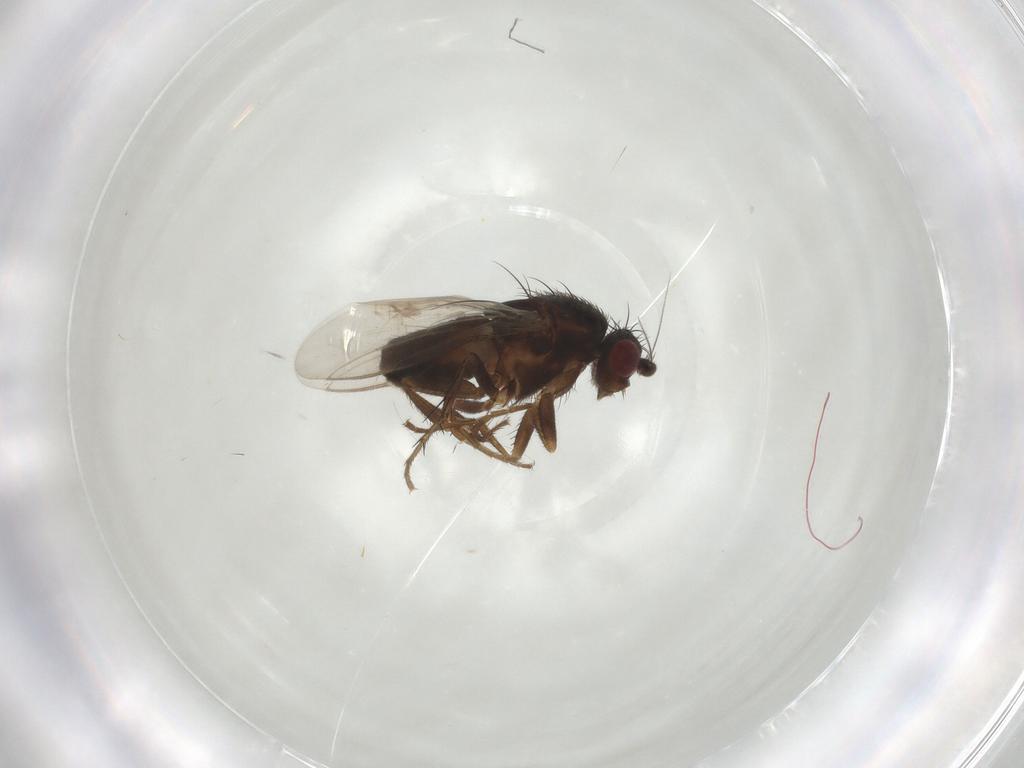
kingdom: Animalia
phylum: Arthropoda
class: Insecta
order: Diptera
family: Sphaeroceridae
